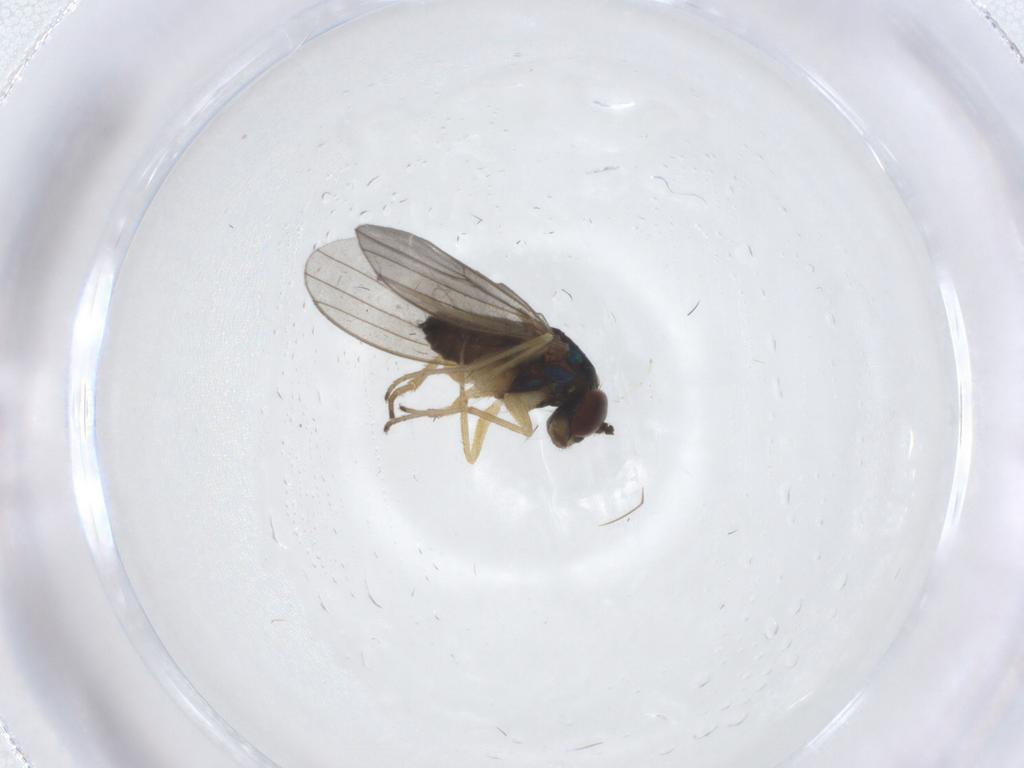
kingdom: Animalia
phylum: Arthropoda
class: Insecta
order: Diptera
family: Dolichopodidae
